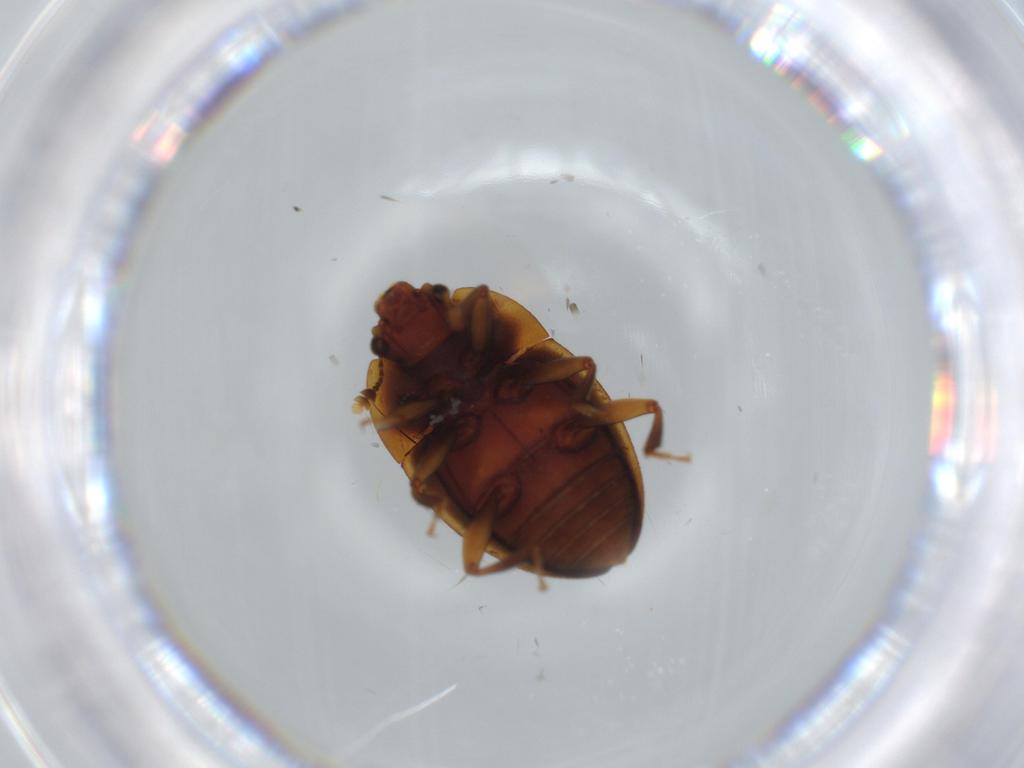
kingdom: Animalia
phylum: Arthropoda
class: Insecta
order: Coleoptera
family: Chrysomelidae
